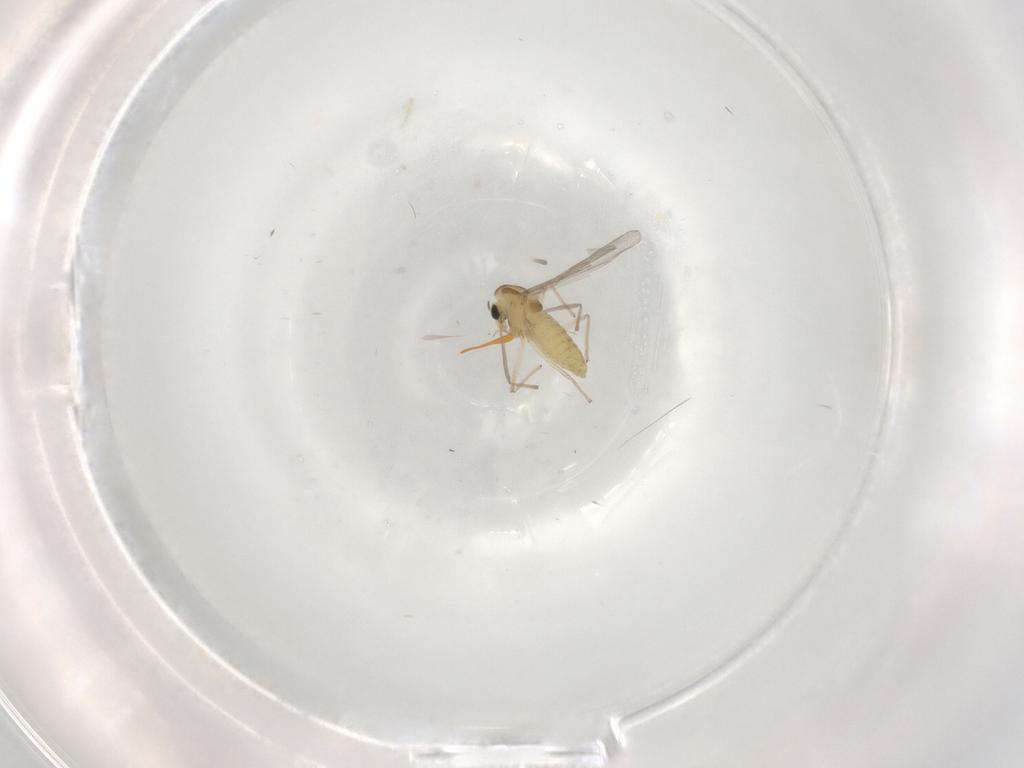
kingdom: Animalia
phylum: Arthropoda
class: Insecta
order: Diptera
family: Chironomidae
